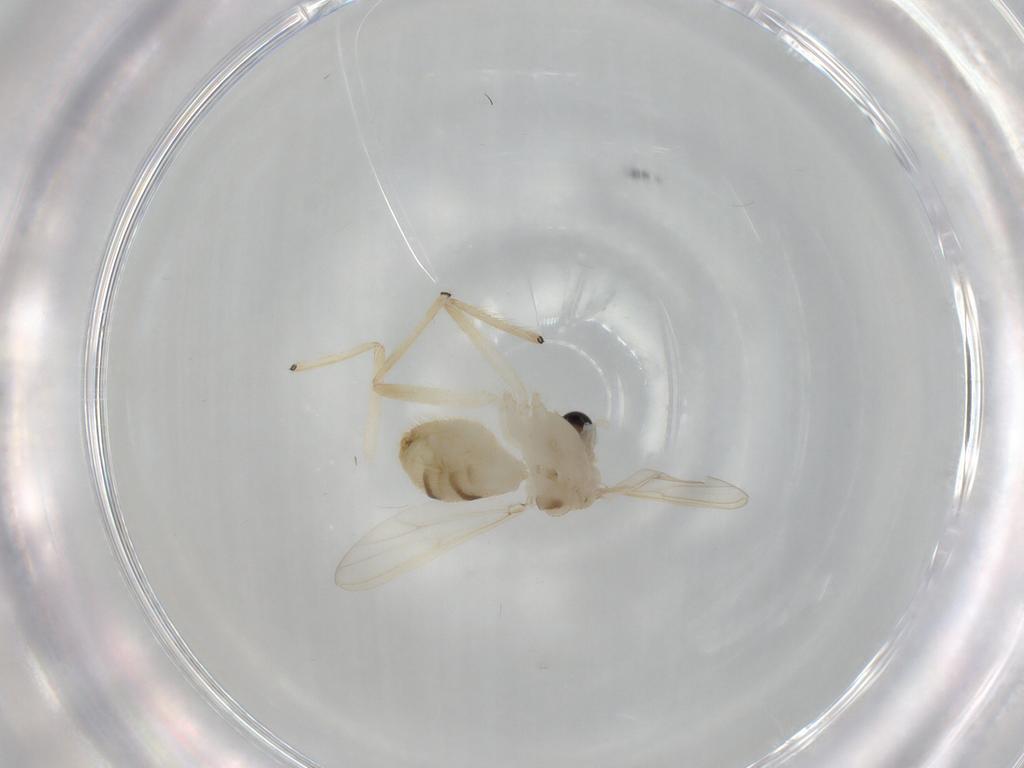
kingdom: Animalia
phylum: Arthropoda
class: Insecta
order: Diptera
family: Chironomidae
